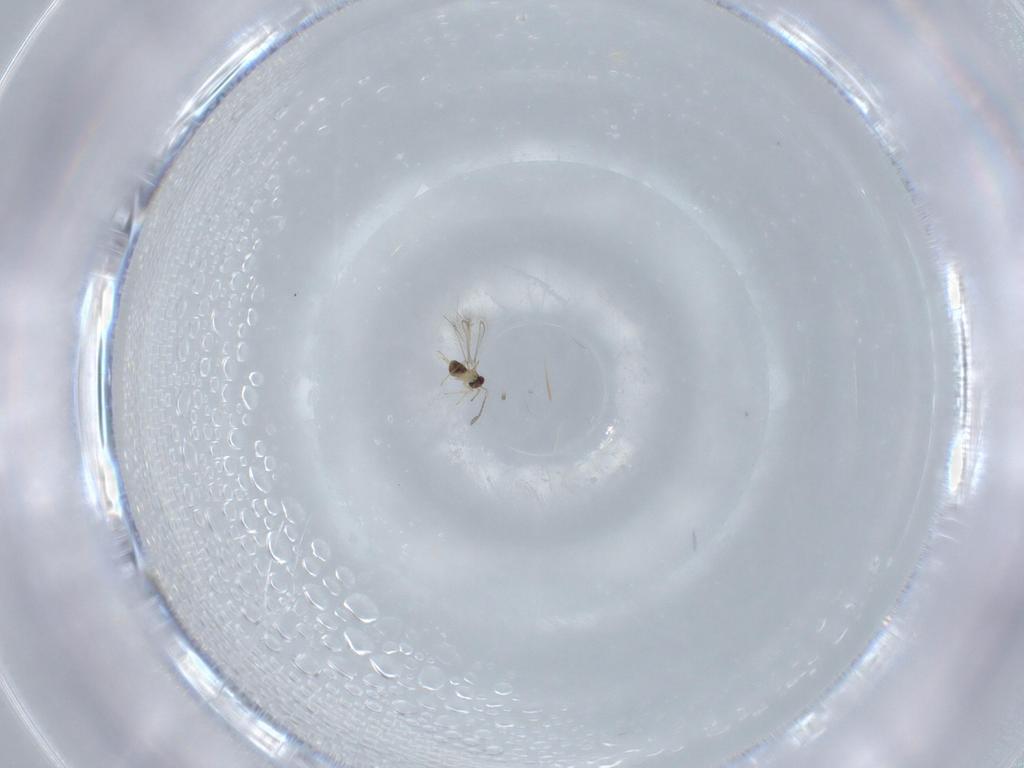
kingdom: Animalia
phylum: Arthropoda
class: Insecta
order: Hymenoptera
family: Mymaridae
